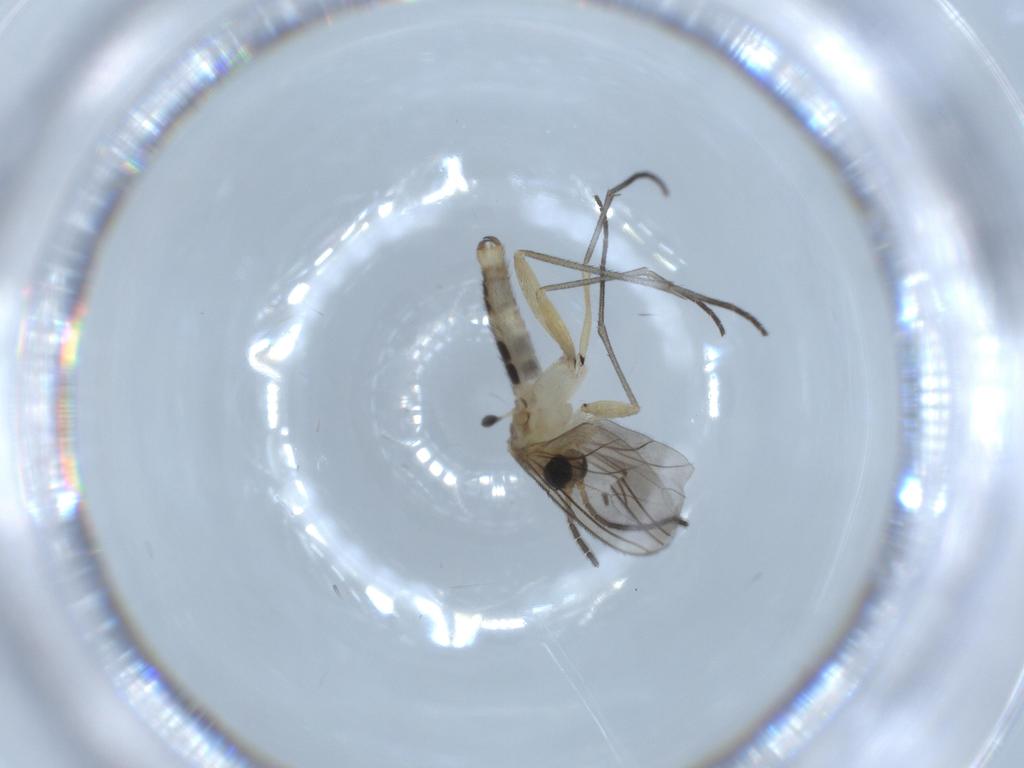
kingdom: Animalia
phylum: Arthropoda
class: Insecta
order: Diptera
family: Sciaridae
